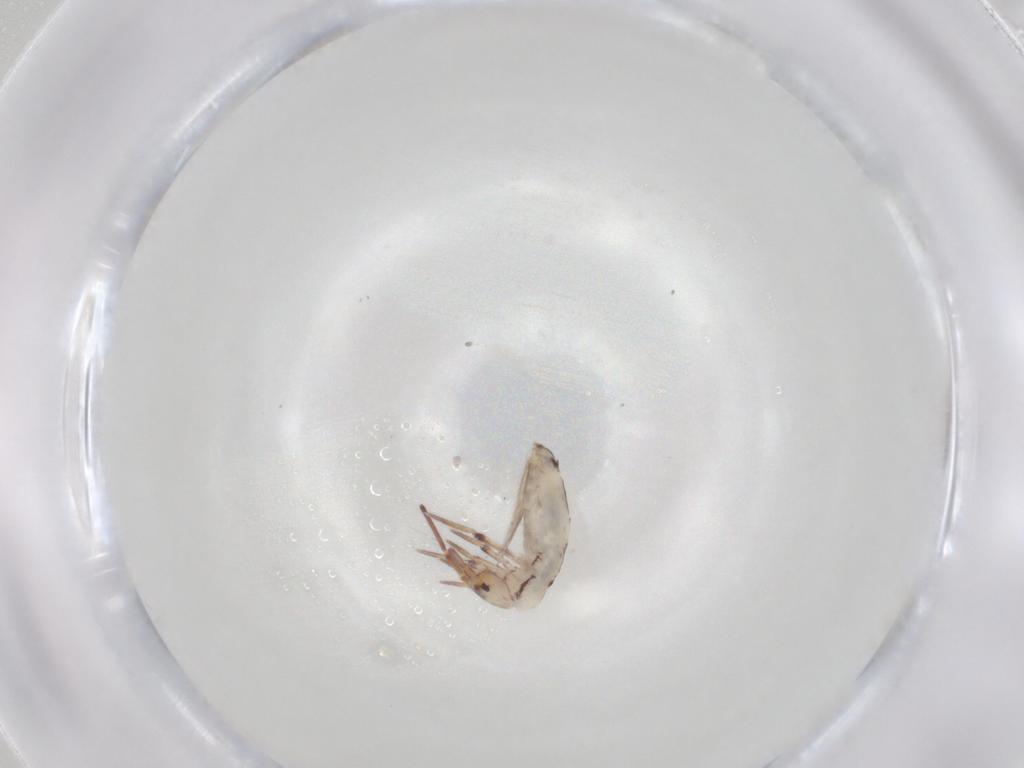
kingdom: Animalia
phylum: Arthropoda
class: Collembola
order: Entomobryomorpha
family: Entomobryidae
